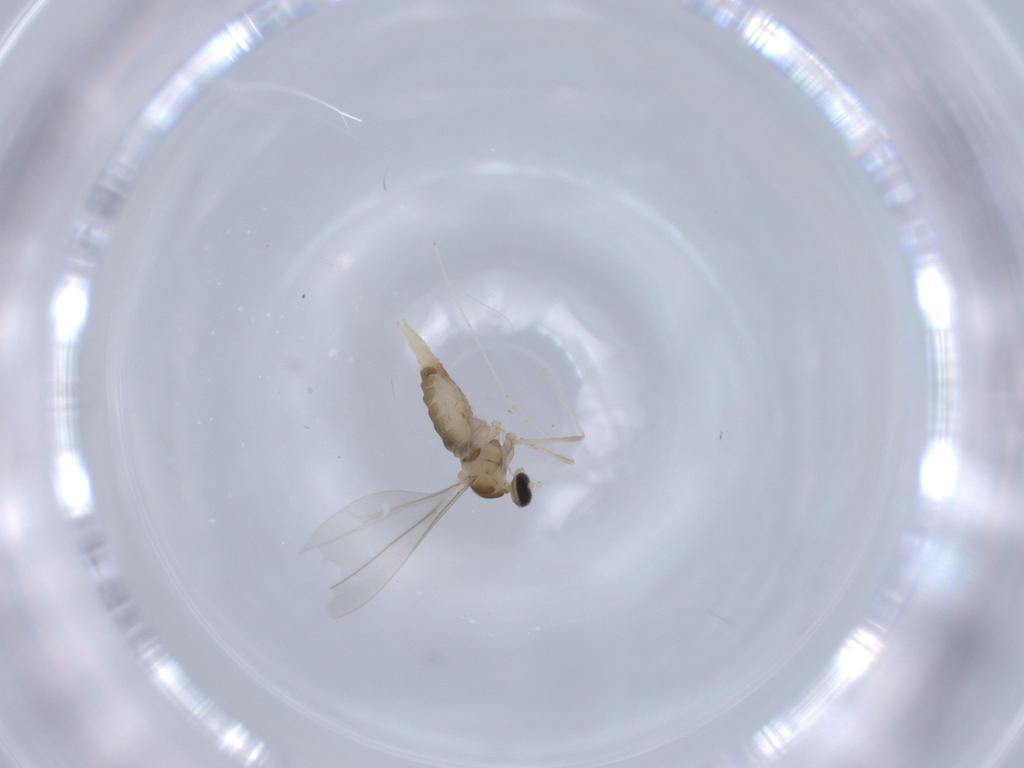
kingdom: Animalia
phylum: Arthropoda
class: Insecta
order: Diptera
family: Cecidomyiidae
